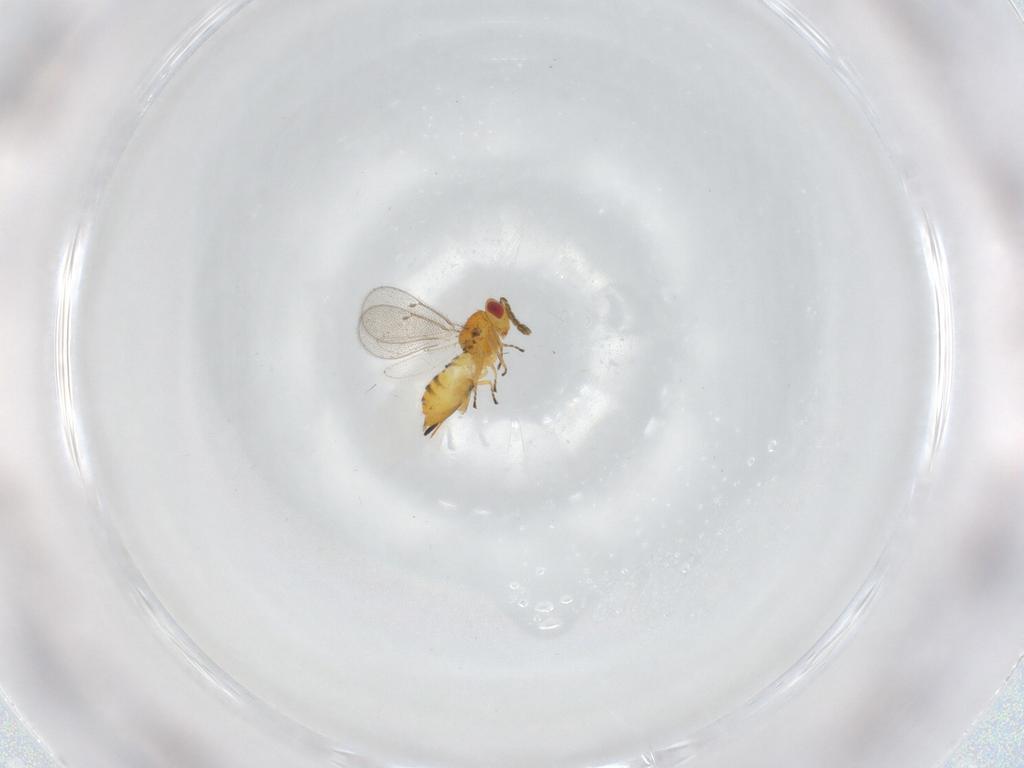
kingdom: Animalia
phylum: Arthropoda
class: Insecta
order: Hymenoptera
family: Eulophidae
